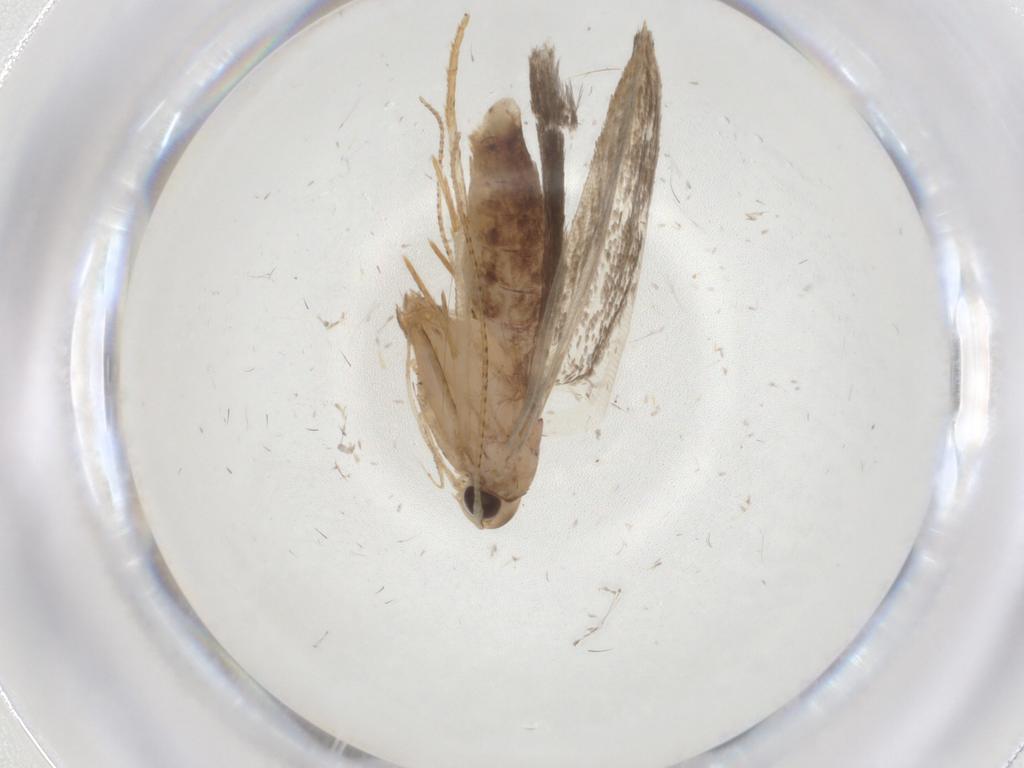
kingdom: Animalia
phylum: Arthropoda
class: Insecta
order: Lepidoptera
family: Gelechiidae
